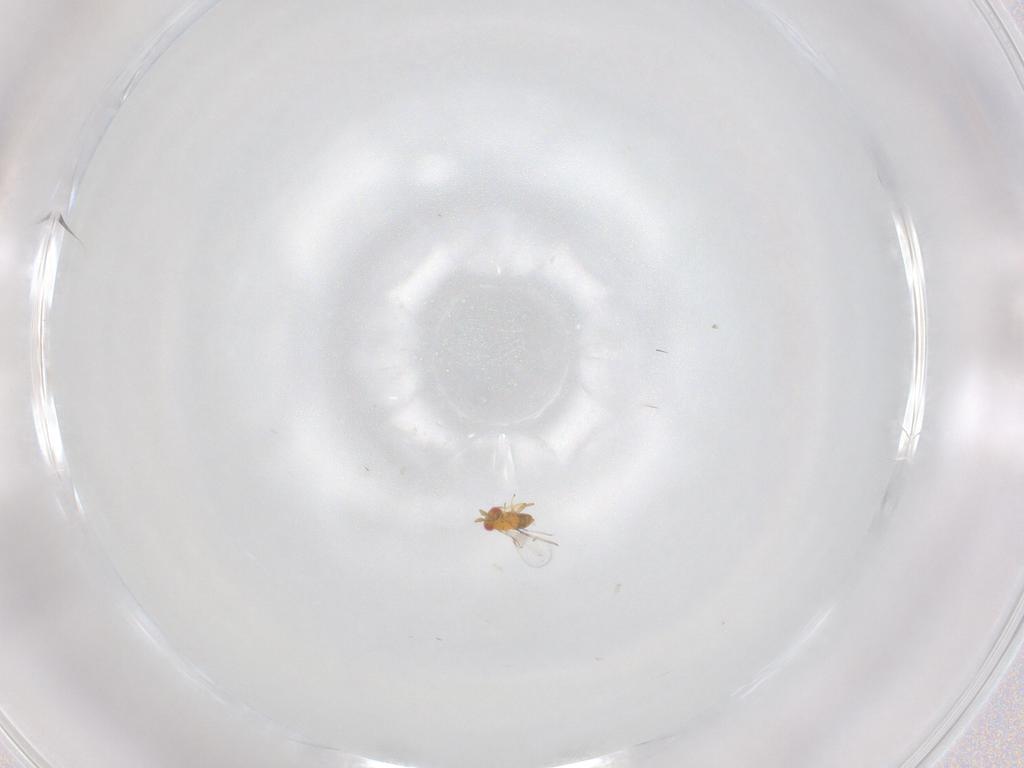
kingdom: Animalia
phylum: Arthropoda
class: Insecta
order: Hymenoptera
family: Trichogrammatidae
